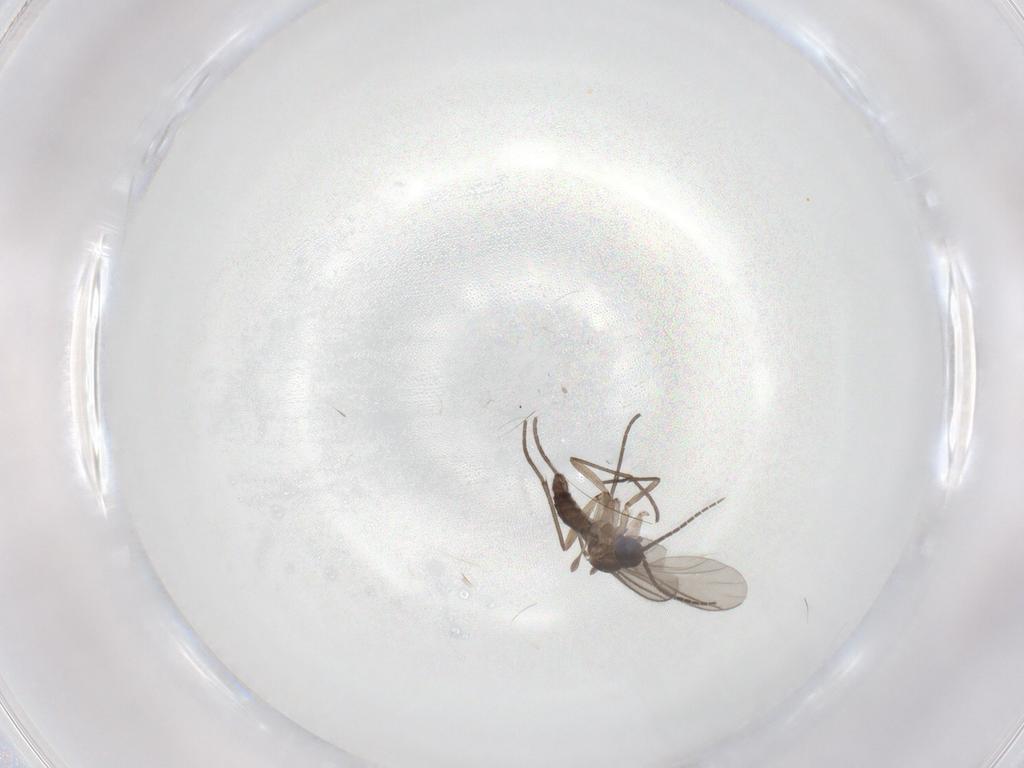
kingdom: Animalia
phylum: Arthropoda
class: Insecta
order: Diptera
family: Sciaridae
